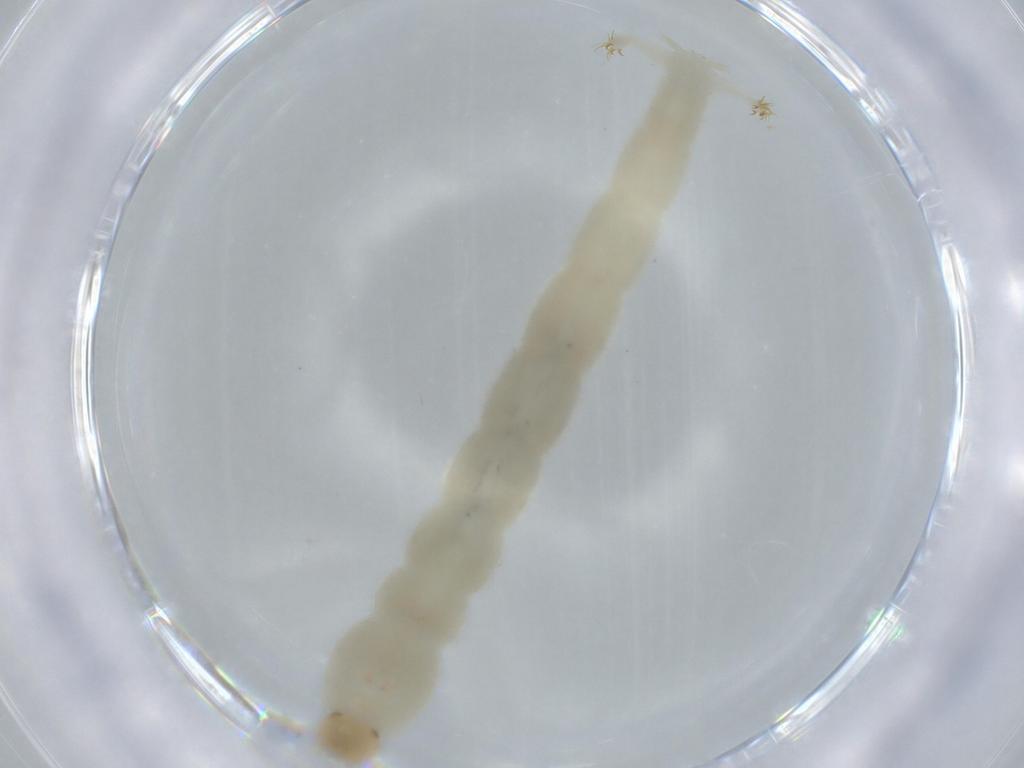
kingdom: Animalia
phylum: Arthropoda
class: Insecta
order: Diptera
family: Chironomidae
